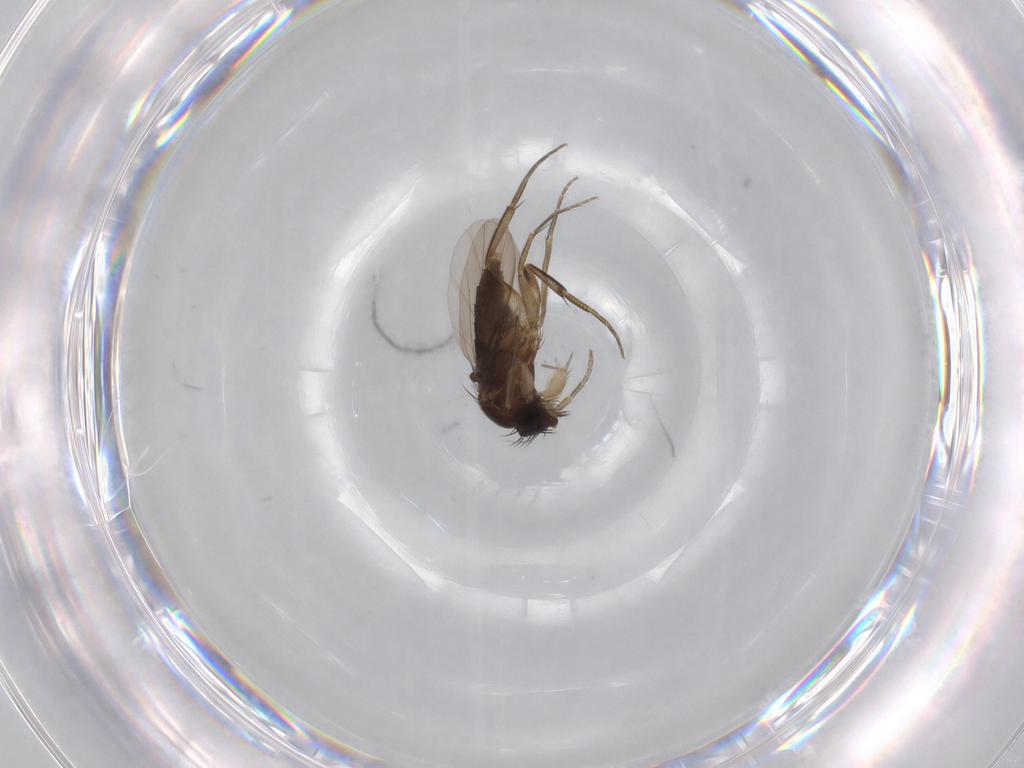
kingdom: Animalia
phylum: Arthropoda
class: Insecta
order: Diptera
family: Phoridae
